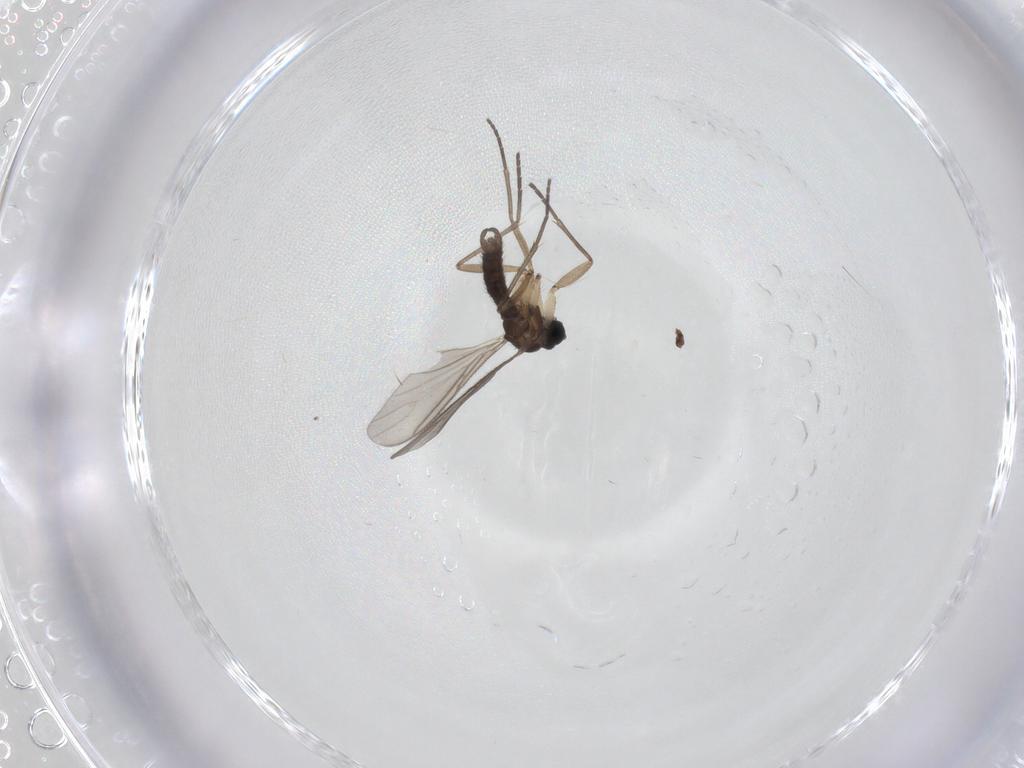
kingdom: Animalia
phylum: Arthropoda
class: Insecta
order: Diptera
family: Sciaridae
